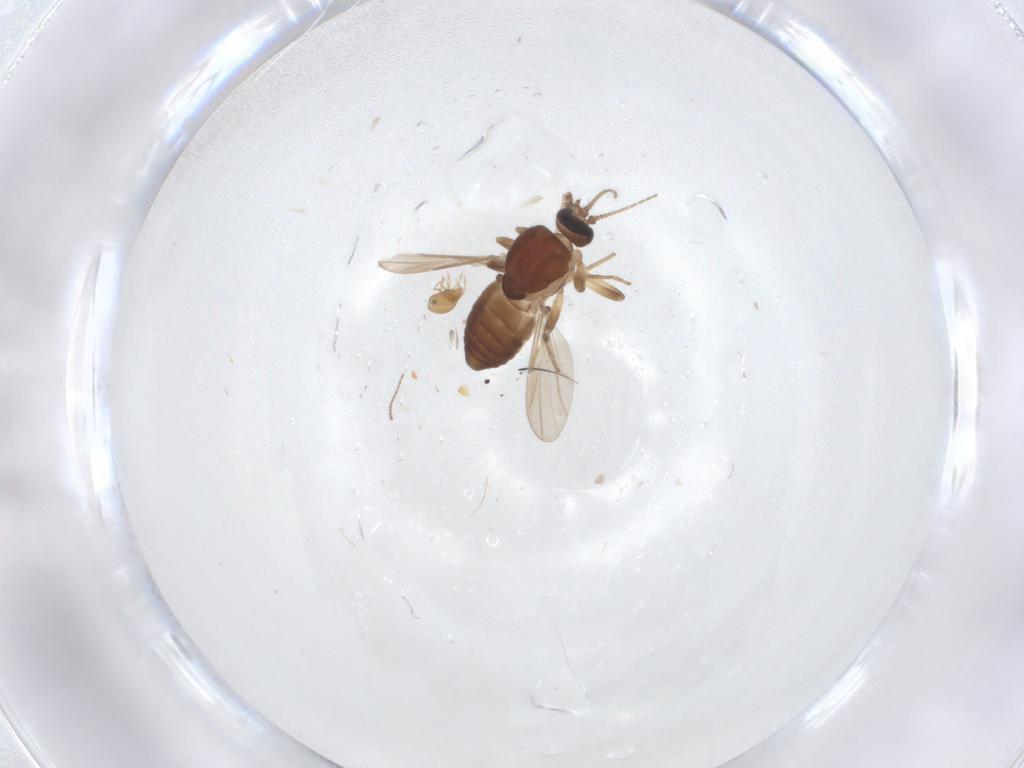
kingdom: Animalia
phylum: Arthropoda
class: Insecta
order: Diptera
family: Ceratopogonidae
